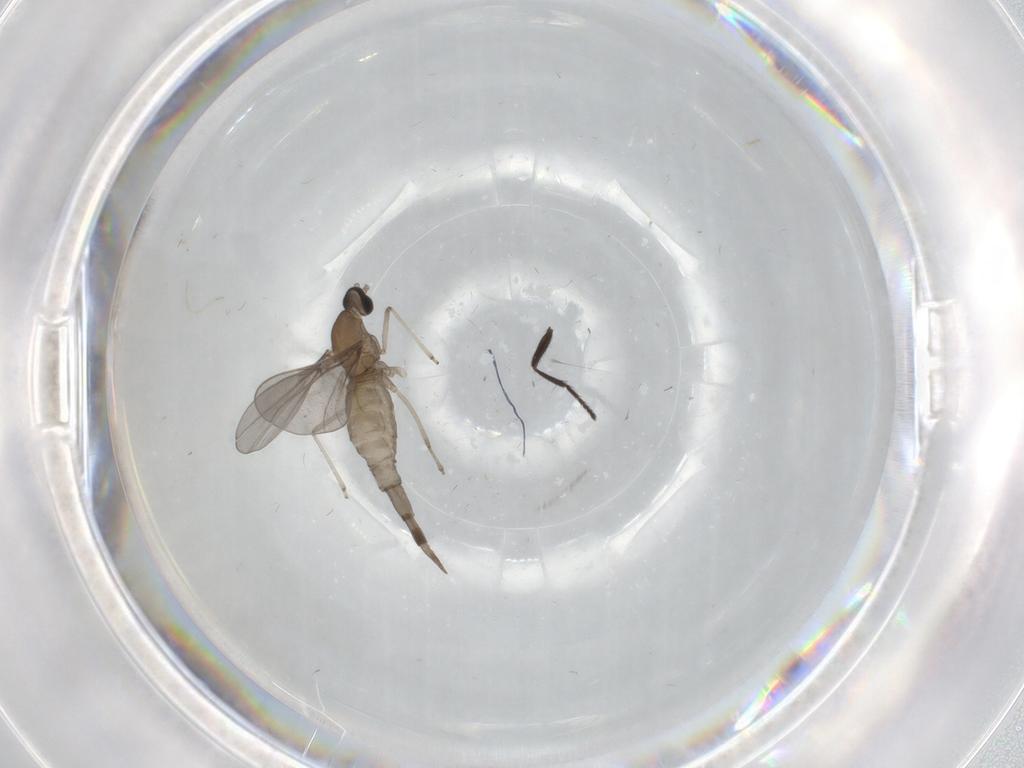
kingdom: Animalia
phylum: Arthropoda
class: Insecta
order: Diptera
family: Cecidomyiidae
